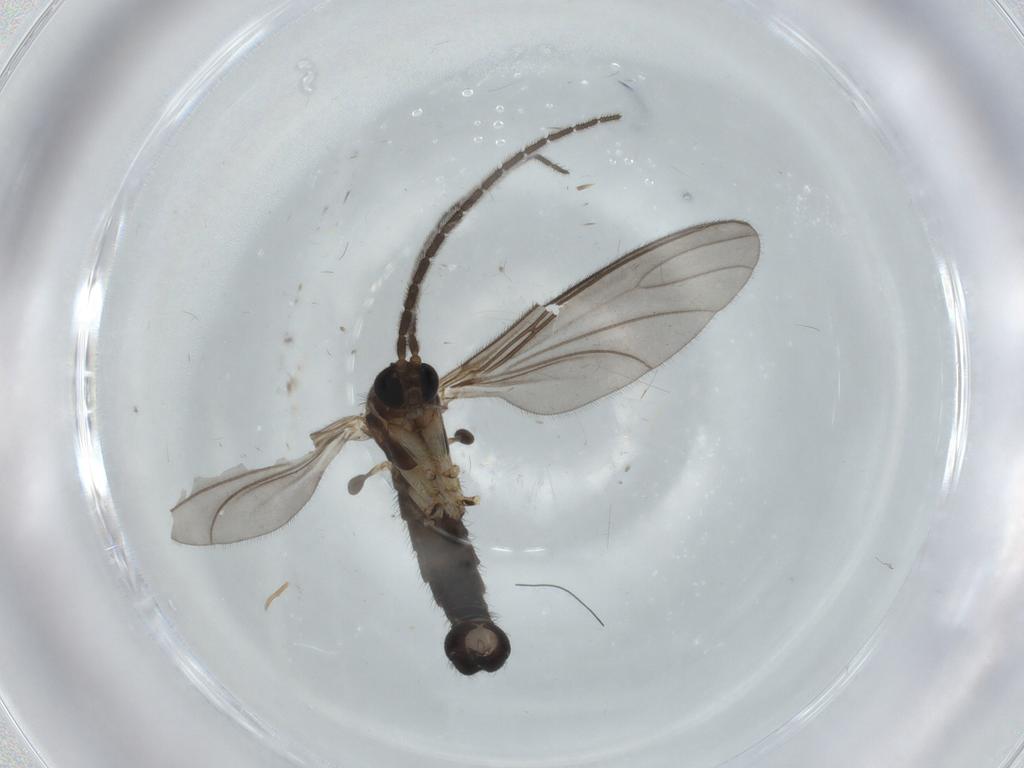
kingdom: Animalia
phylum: Arthropoda
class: Insecta
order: Diptera
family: Sciaridae
